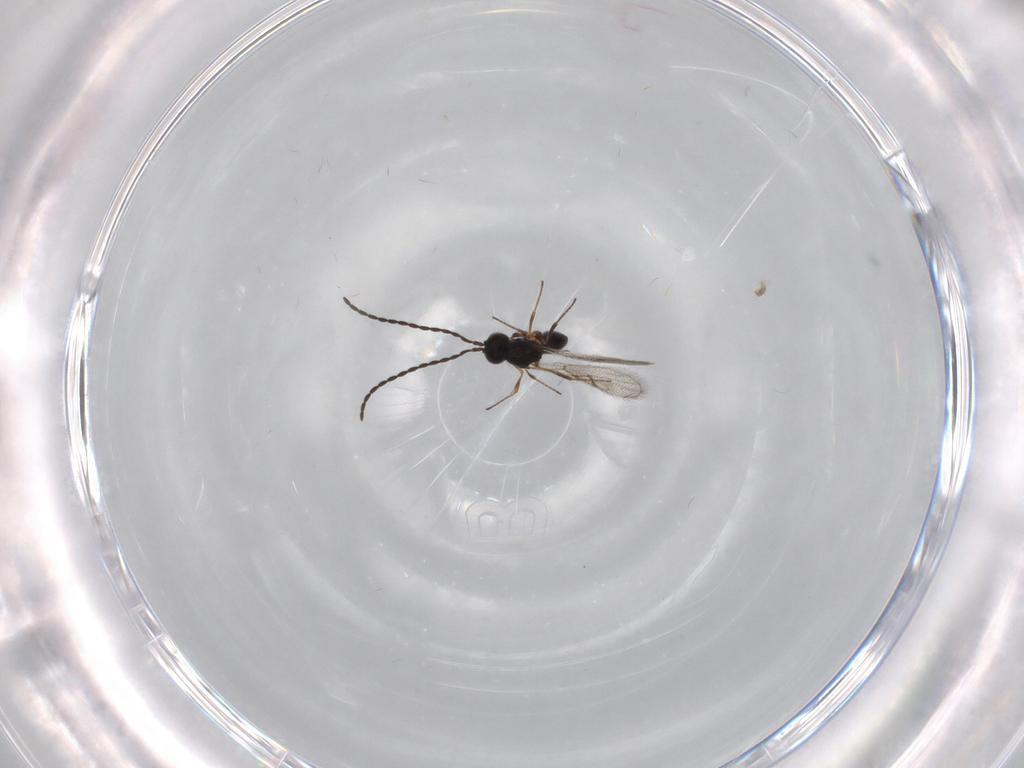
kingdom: Animalia
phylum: Arthropoda
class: Insecta
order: Hymenoptera
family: Figitidae
